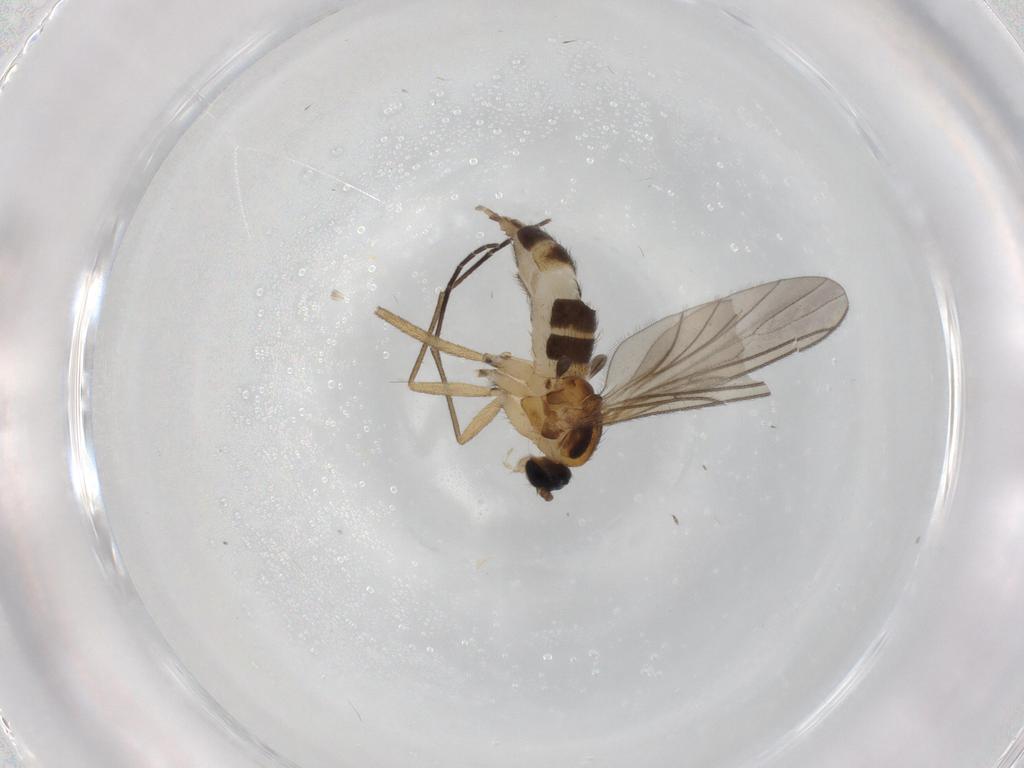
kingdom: Animalia
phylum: Arthropoda
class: Insecta
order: Diptera
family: Sciaridae
